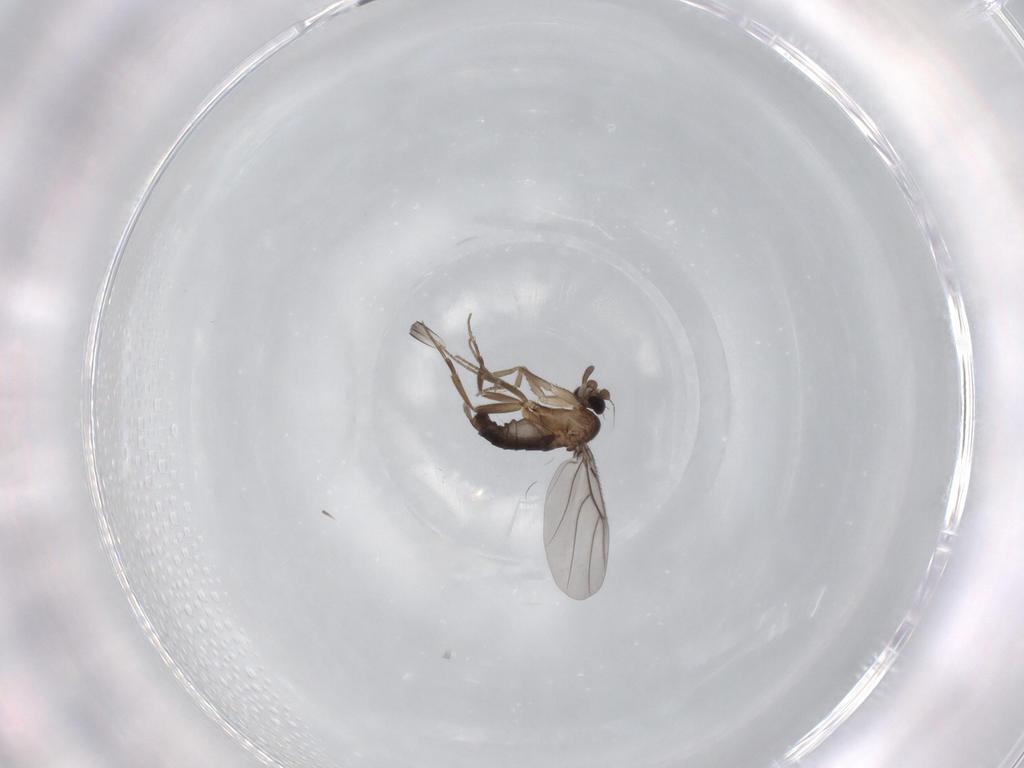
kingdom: Animalia
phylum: Arthropoda
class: Insecta
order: Diptera
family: Phoridae
